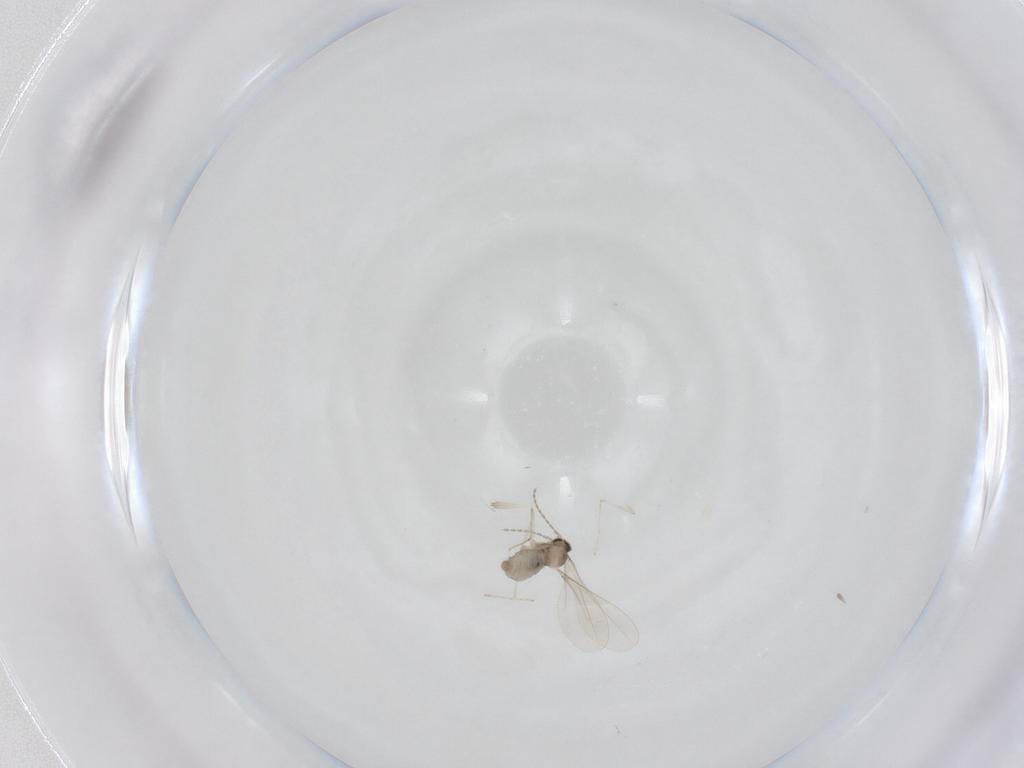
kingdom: Animalia
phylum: Arthropoda
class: Insecta
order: Diptera
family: Cecidomyiidae
